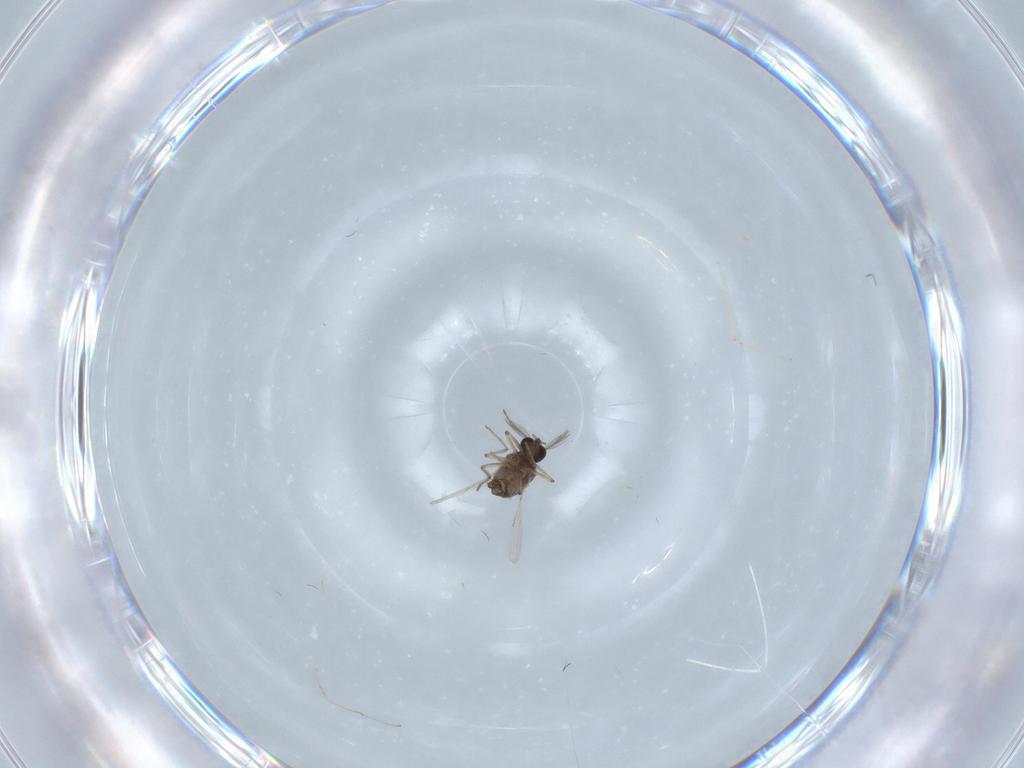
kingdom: Animalia
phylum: Arthropoda
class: Insecta
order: Diptera
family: Ceratopogonidae
